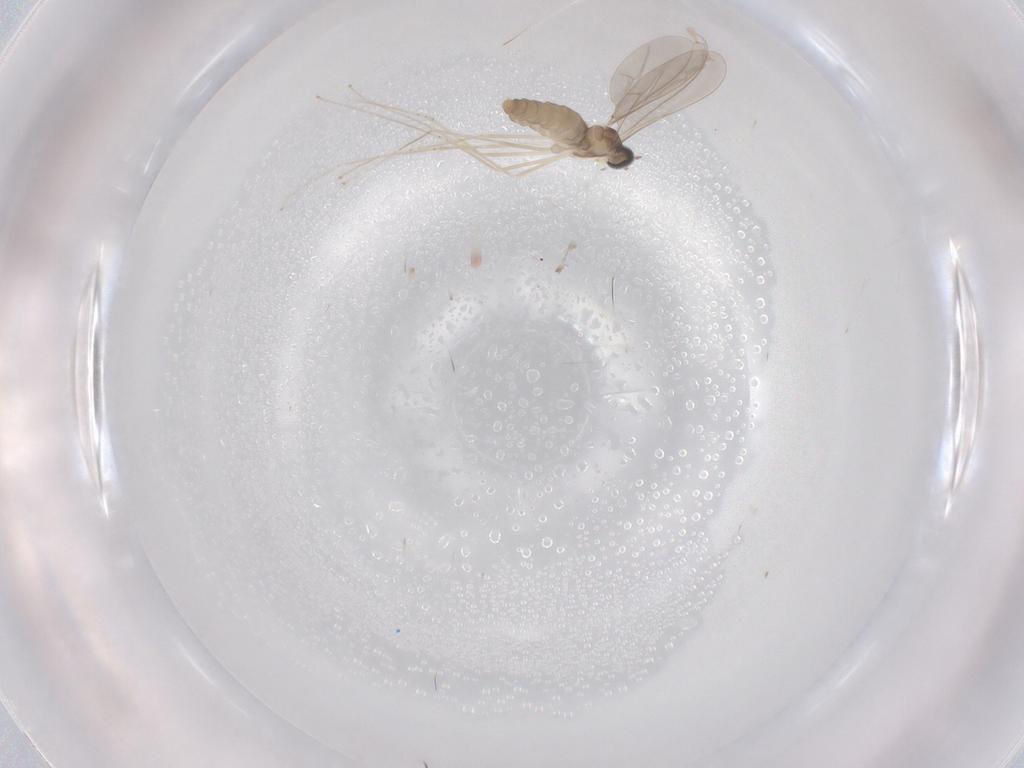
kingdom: Animalia
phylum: Arthropoda
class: Insecta
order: Diptera
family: Cecidomyiidae
